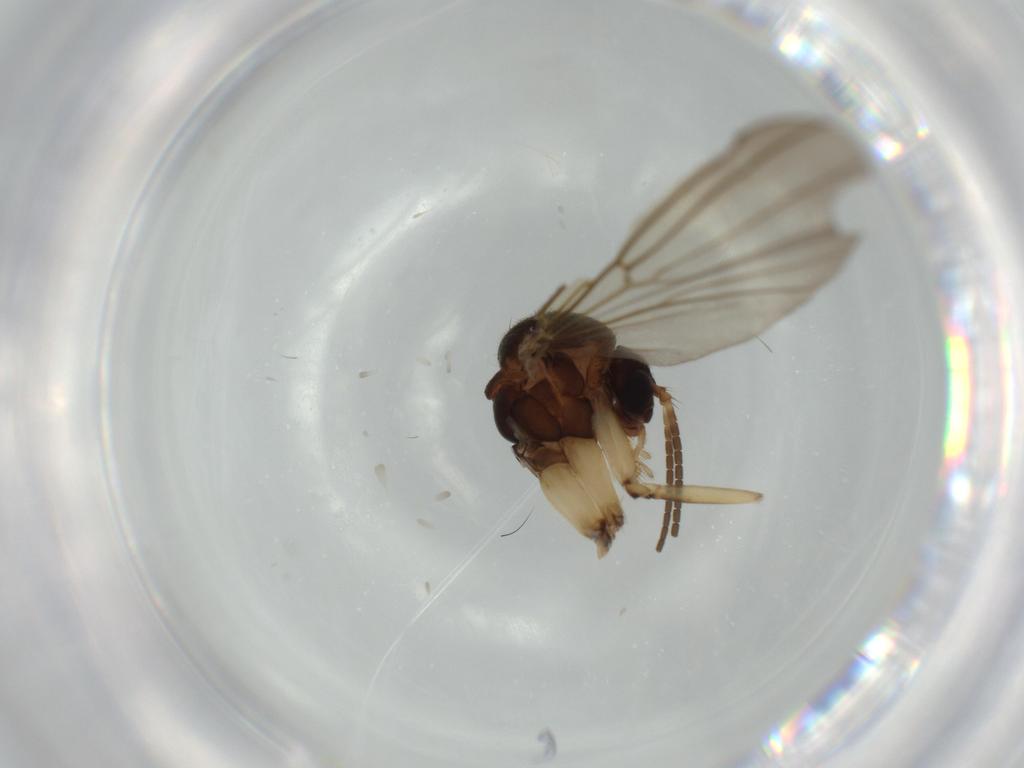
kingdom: Animalia
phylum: Arthropoda
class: Insecta
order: Diptera
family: Mycetophilidae
